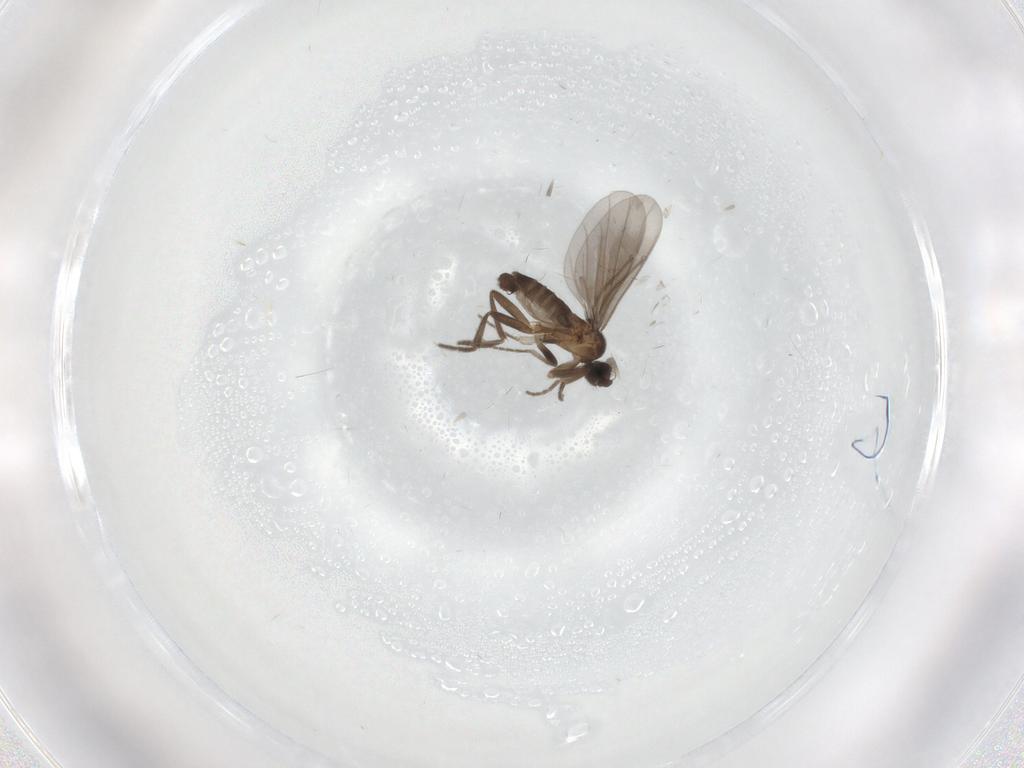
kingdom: Animalia
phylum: Arthropoda
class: Insecta
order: Diptera
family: Phoridae
